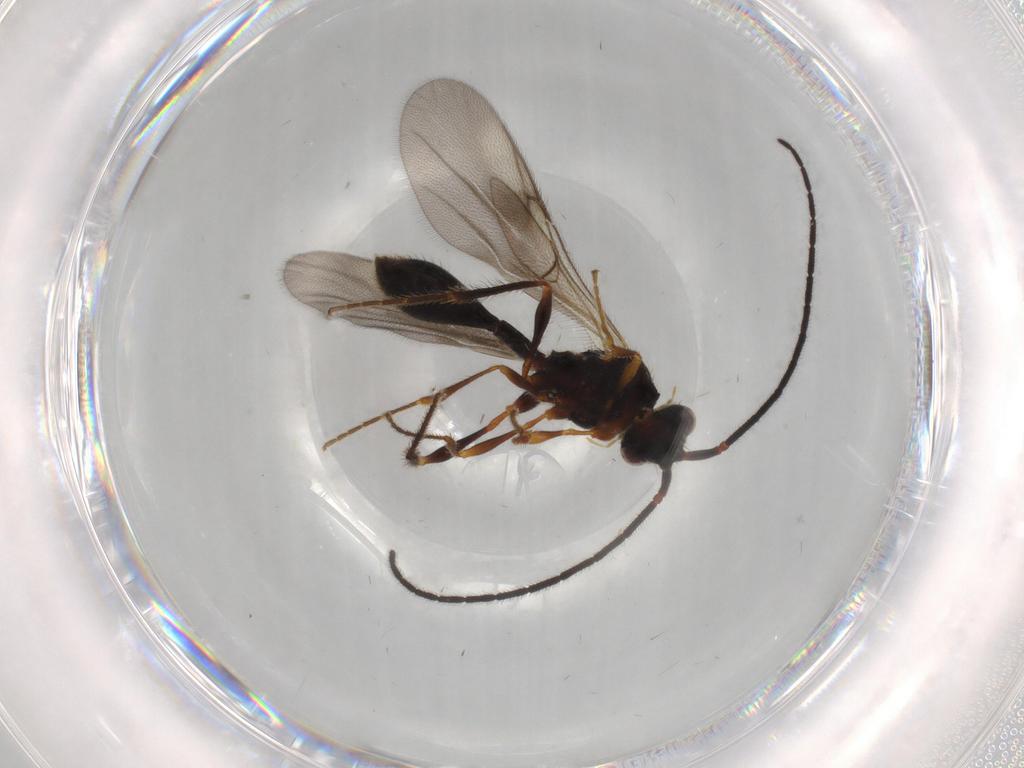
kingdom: Animalia
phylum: Arthropoda
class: Insecta
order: Hymenoptera
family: Diapriidae
